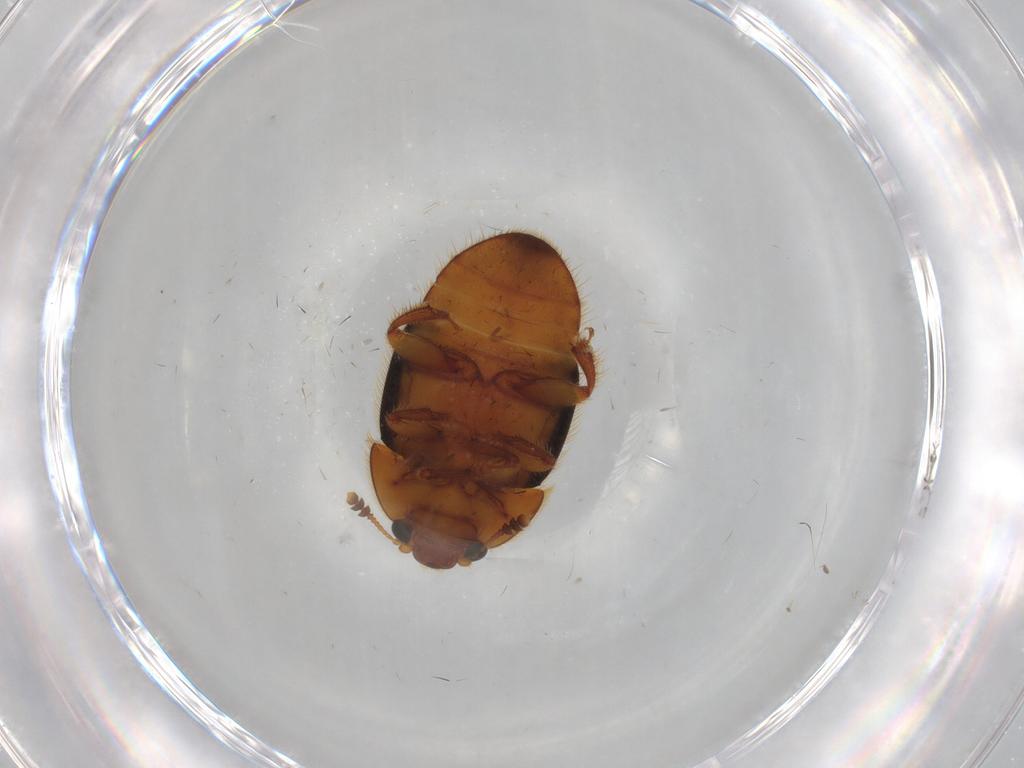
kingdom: Animalia
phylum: Arthropoda
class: Insecta
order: Coleoptera
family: Nitidulidae
